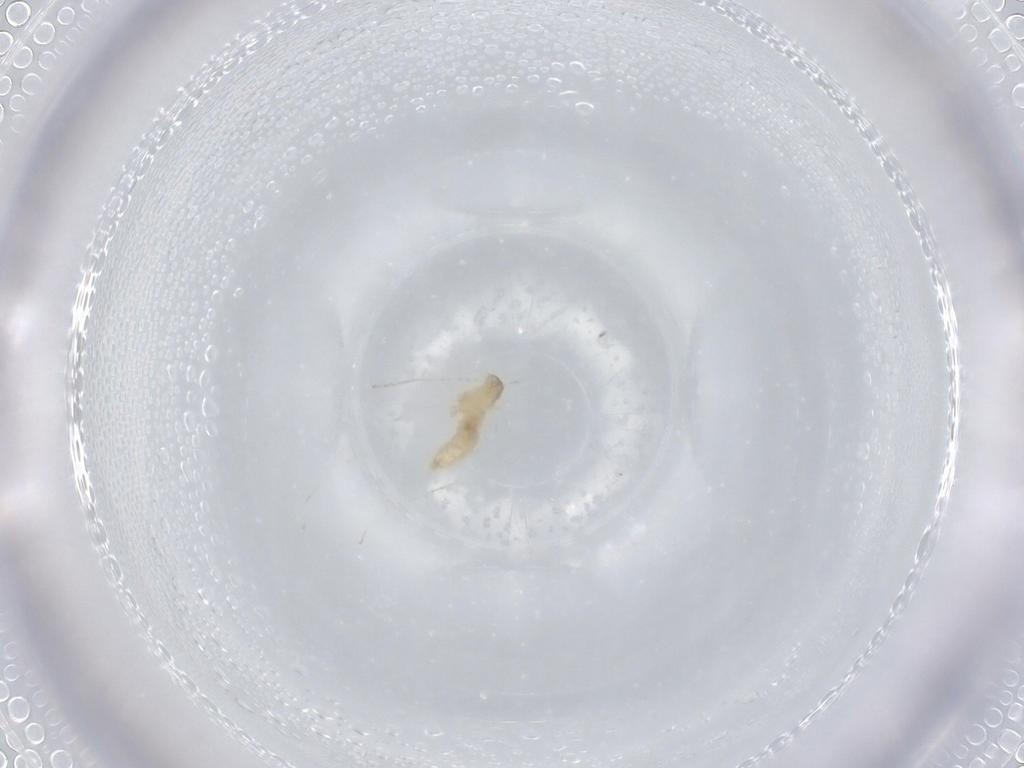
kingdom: Animalia
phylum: Arthropoda
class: Insecta
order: Diptera
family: Cecidomyiidae
